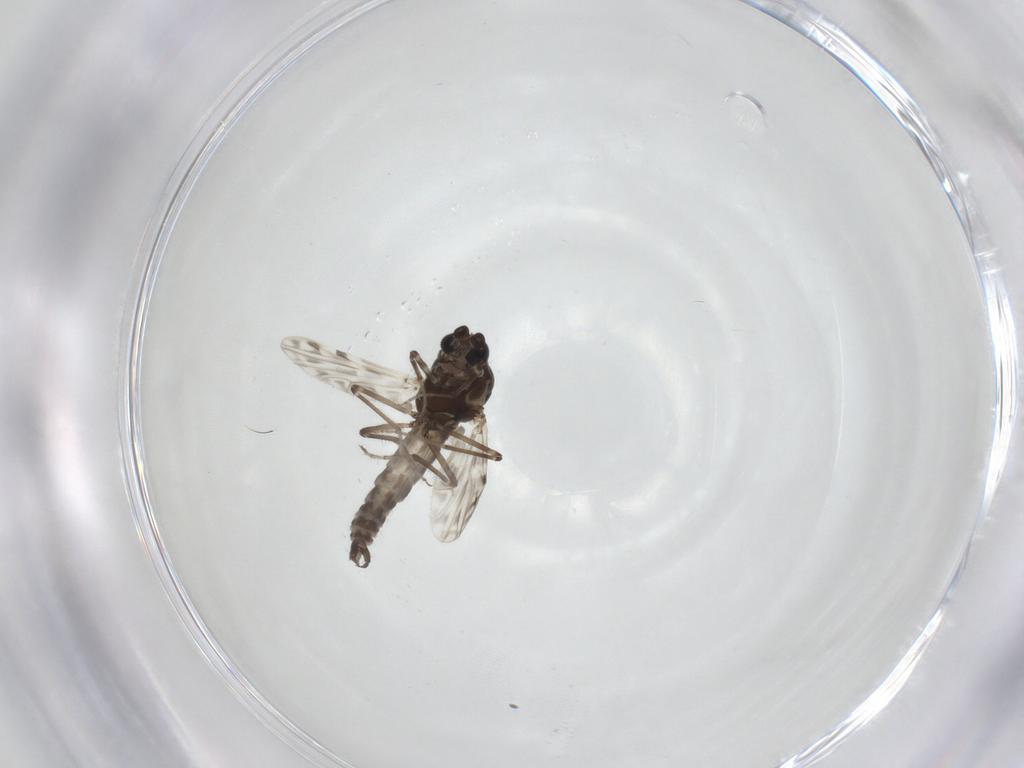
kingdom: Animalia
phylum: Arthropoda
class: Insecta
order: Diptera
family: Ceratopogonidae
